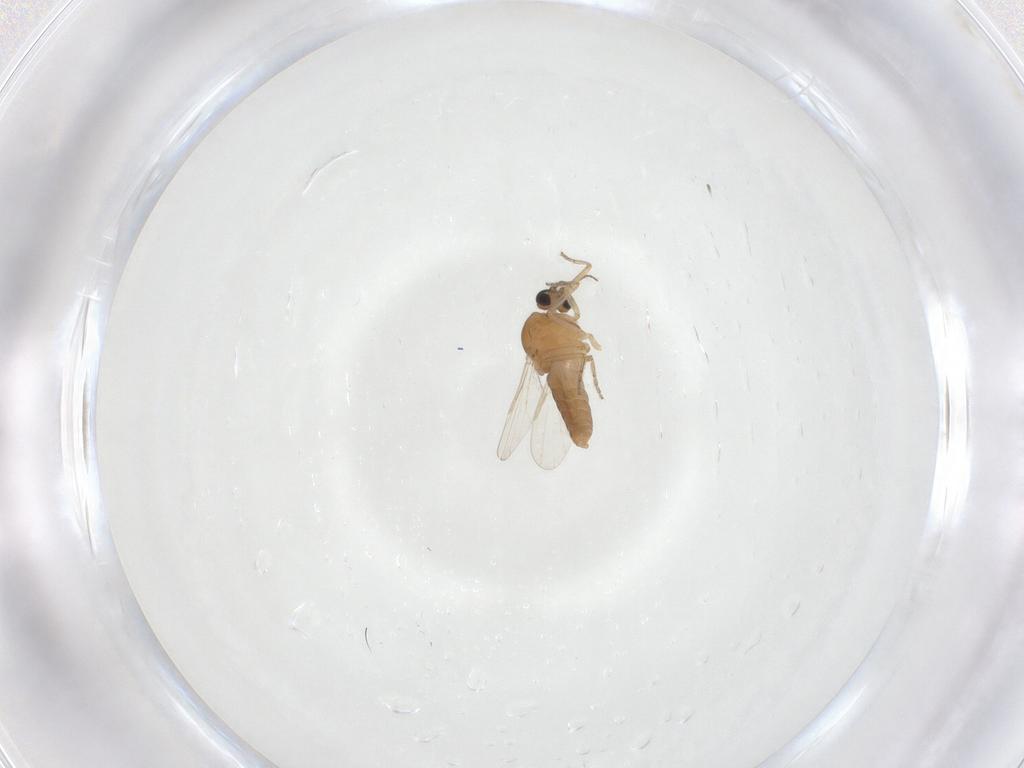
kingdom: Animalia
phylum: Arthropoda
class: Insecta
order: Diptera
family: Ceratopogonidae
